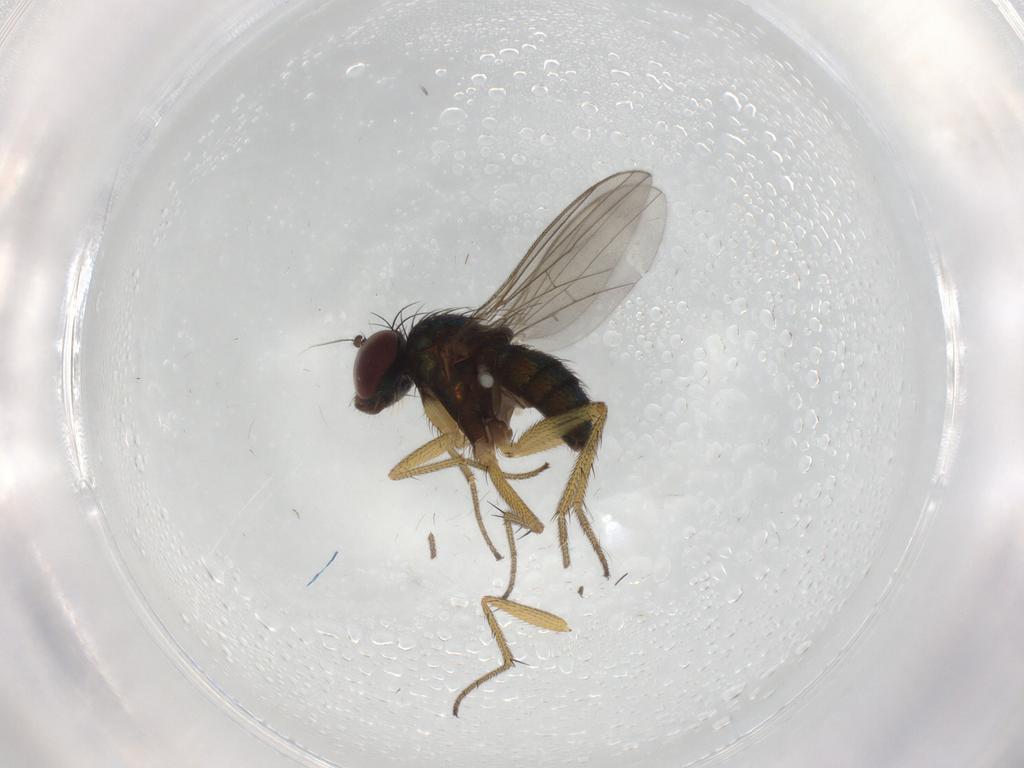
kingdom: Animalia
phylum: Arthropoda
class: Insecta
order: Diptera
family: Dolichopodidae
